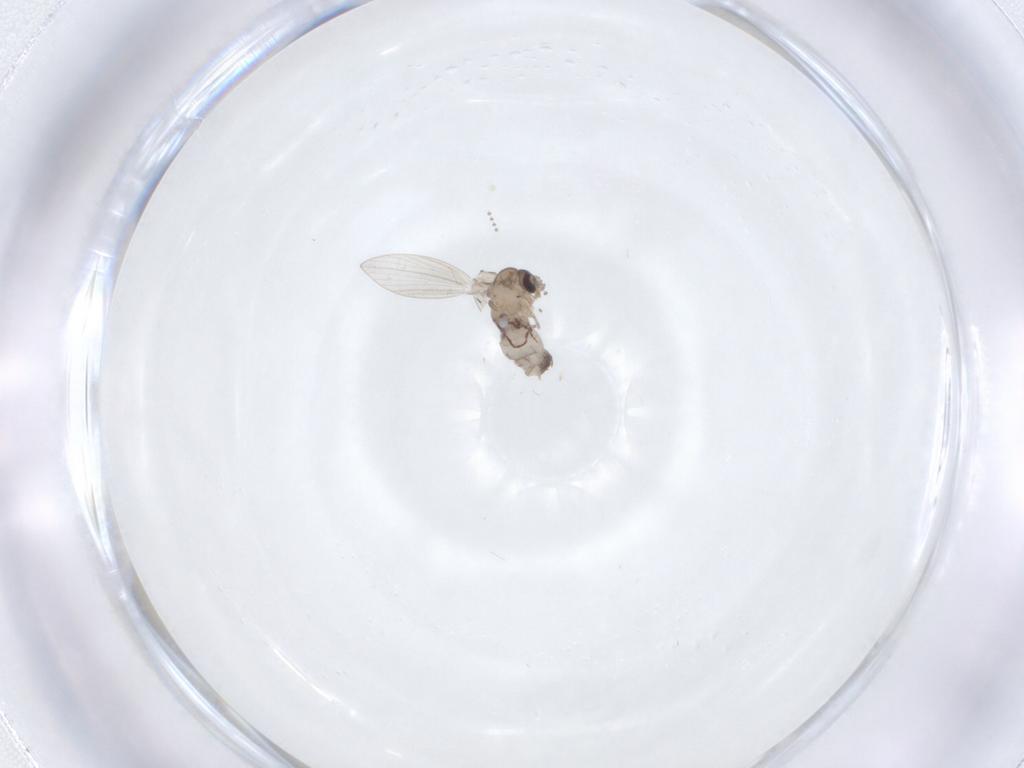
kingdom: Animalia
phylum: Arthropoda
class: Insecta
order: Diptera
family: Psychodidae
